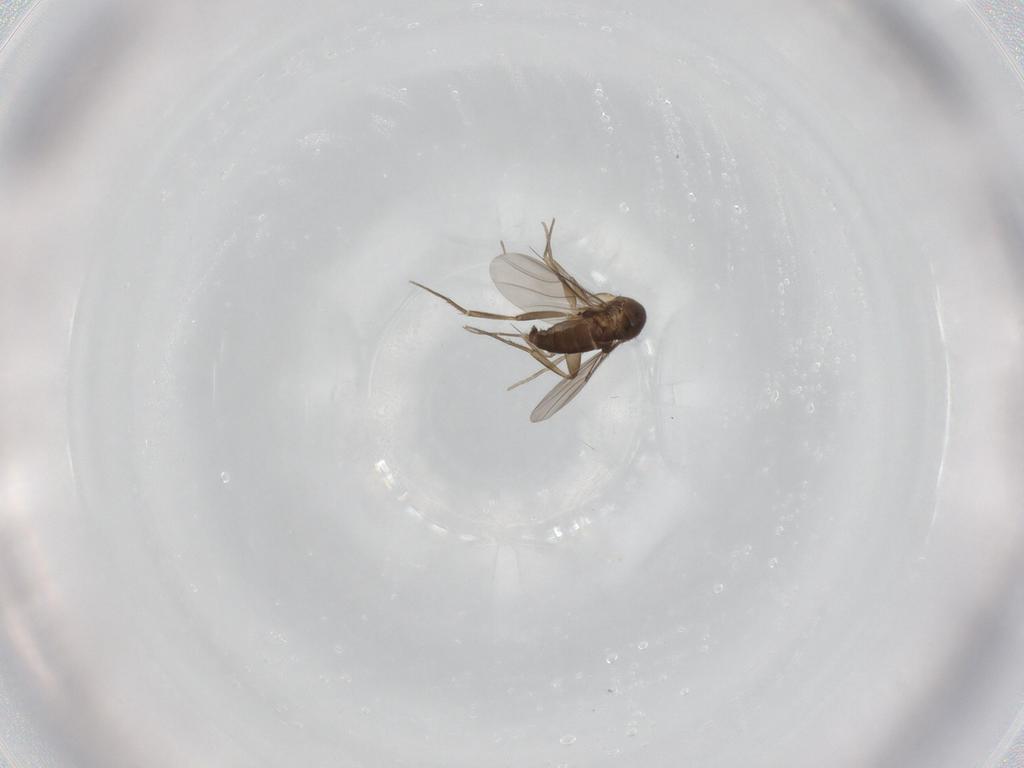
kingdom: Animalia
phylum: Arthropoda
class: Insecta
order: Diptera
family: Phoridae
